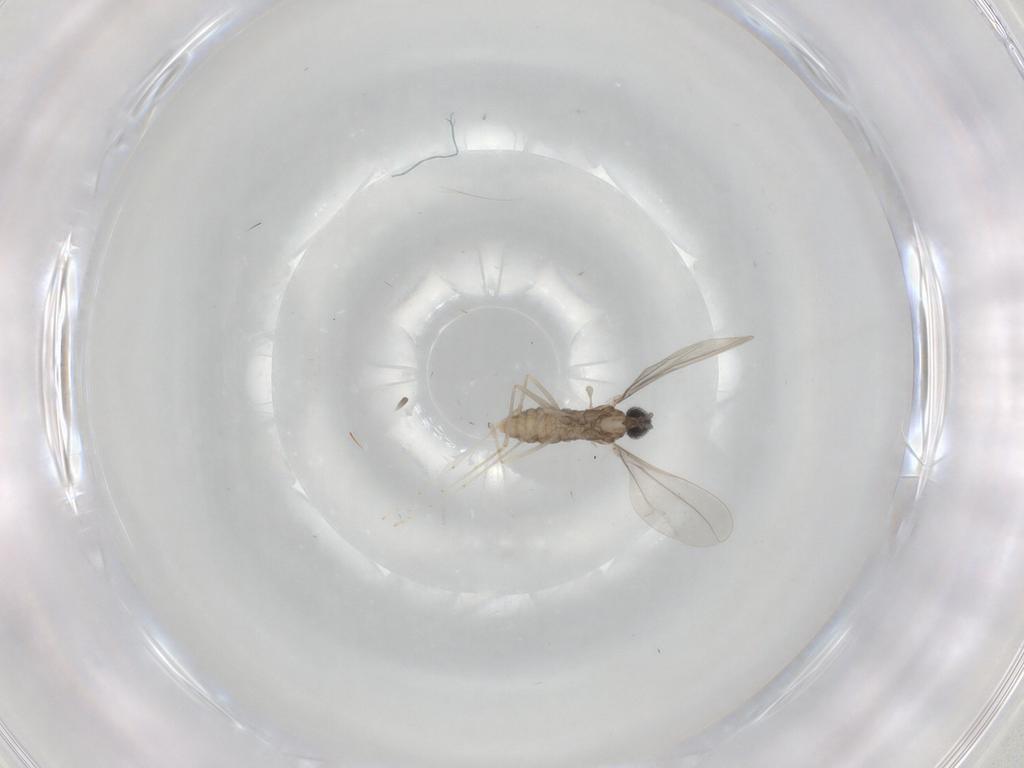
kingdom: Animalia
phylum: Arthropoda
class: Insecta
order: Diptera
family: Cecidomyiidae
